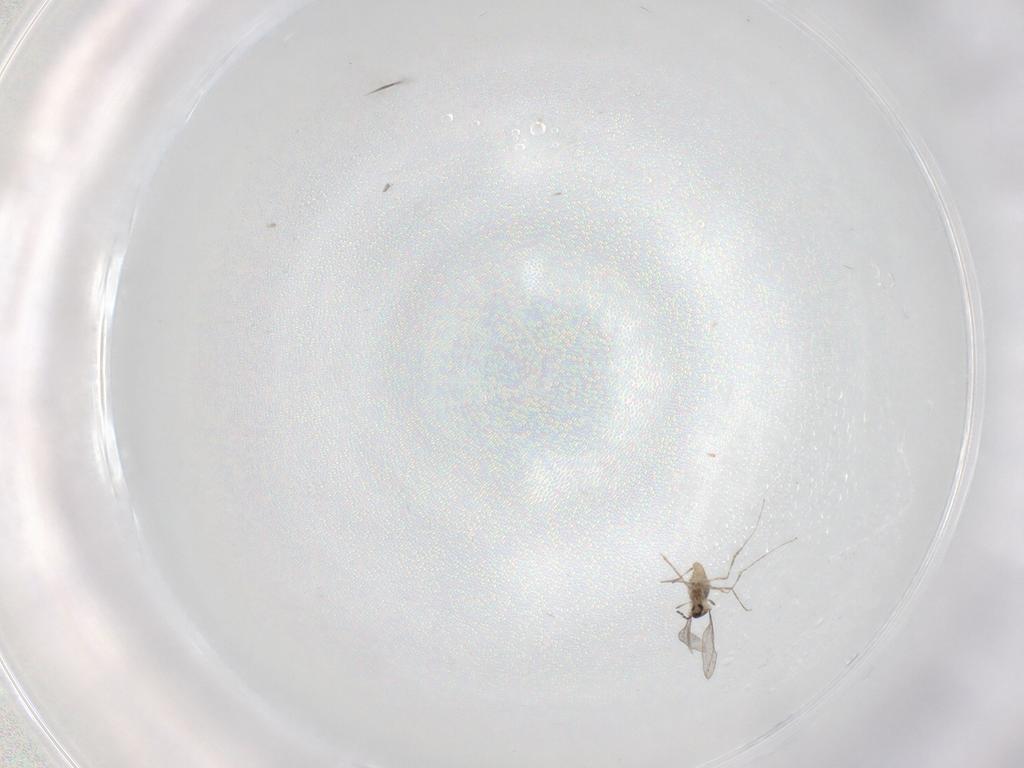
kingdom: Animalia
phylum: Arthropoda
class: Insecta
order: Diptera
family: Cecidomyiidae
